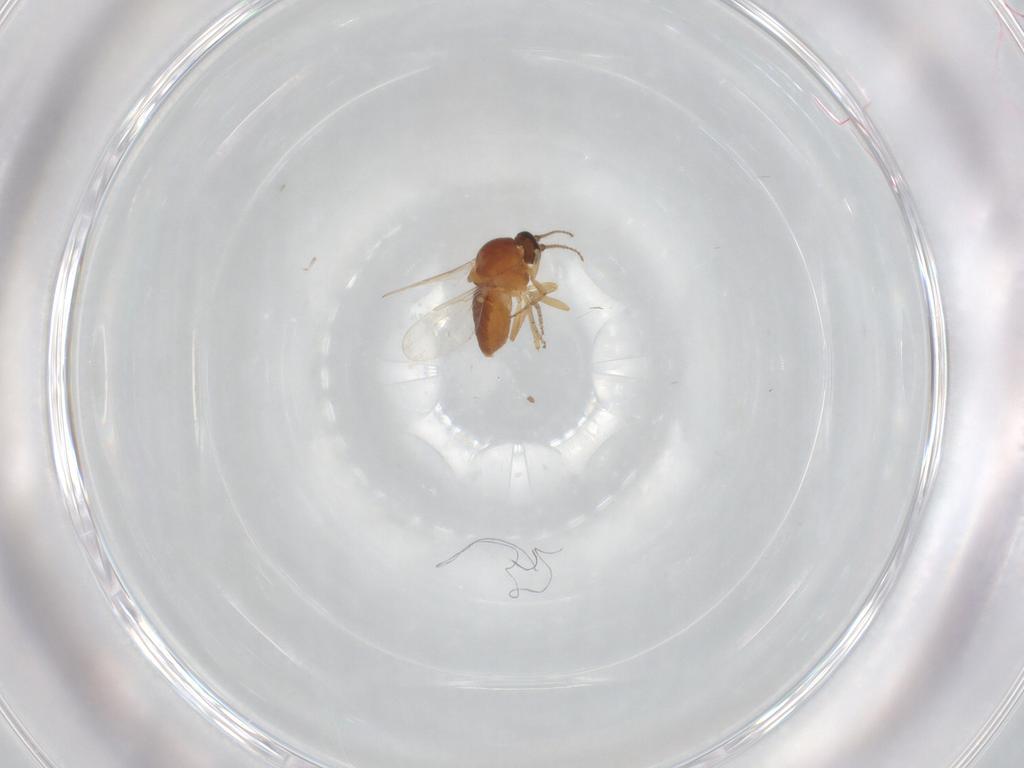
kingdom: Animalia
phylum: Arthropoda
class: Insecta
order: Diptera
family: Ceratopogonidae
